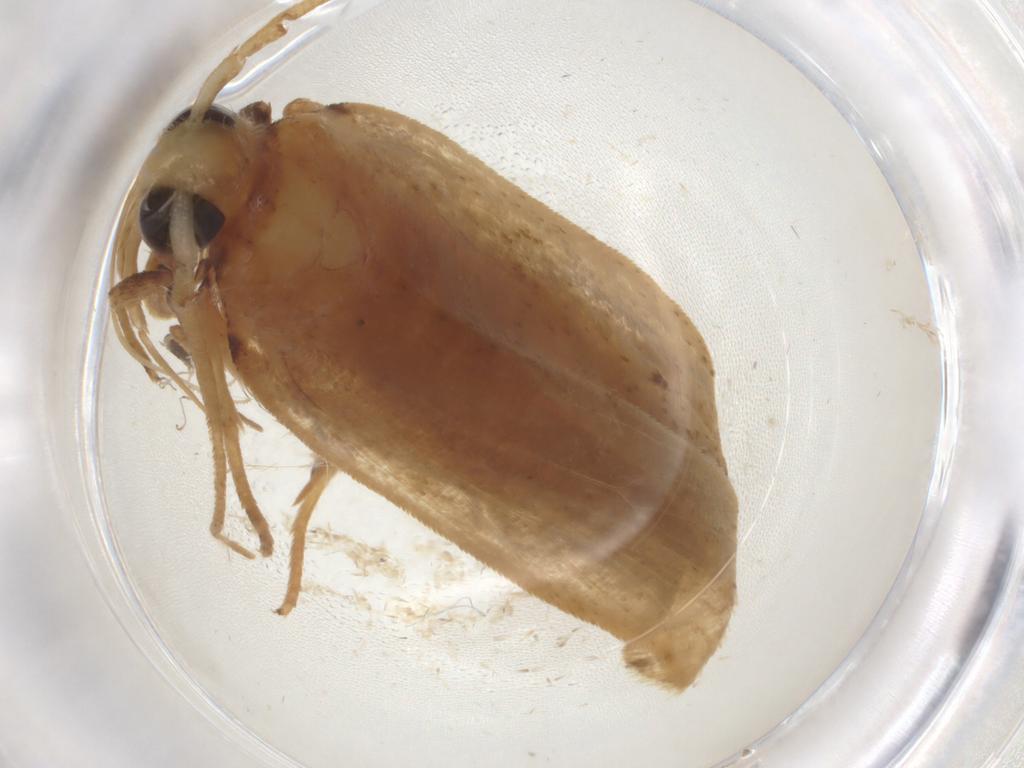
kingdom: Animalia
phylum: Arthropoda
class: Insecta
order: Lepidoptera
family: Autostichidae
